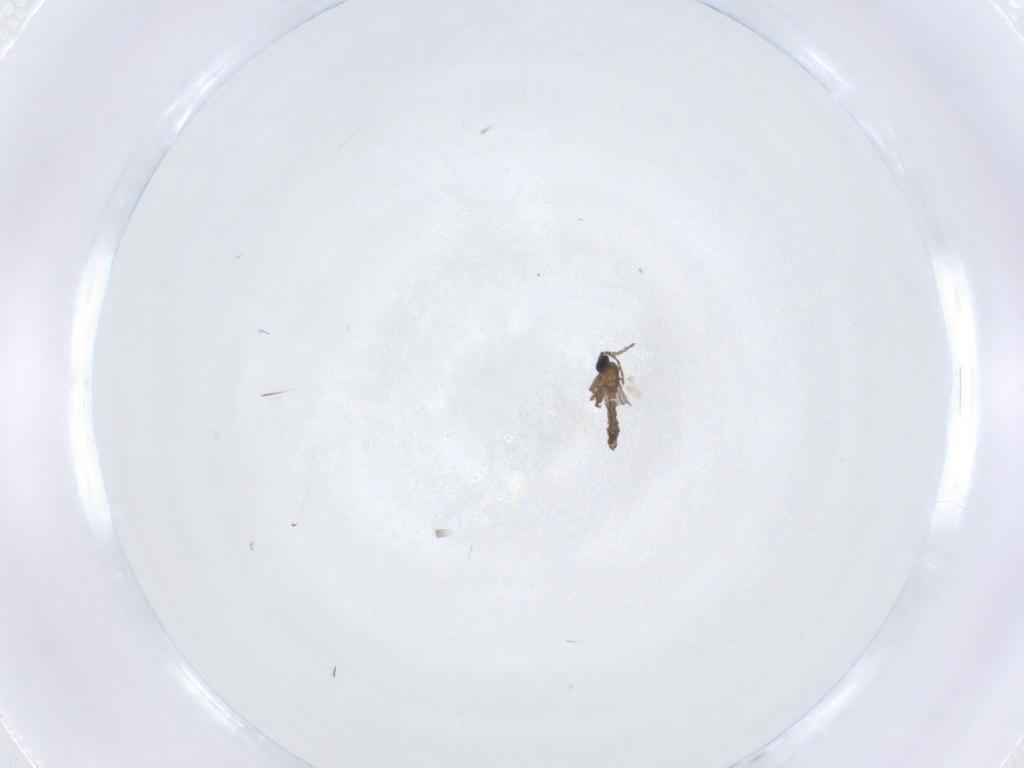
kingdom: Animalia
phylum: Arthropoda
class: Insecta
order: Diptera
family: Sciaridae
